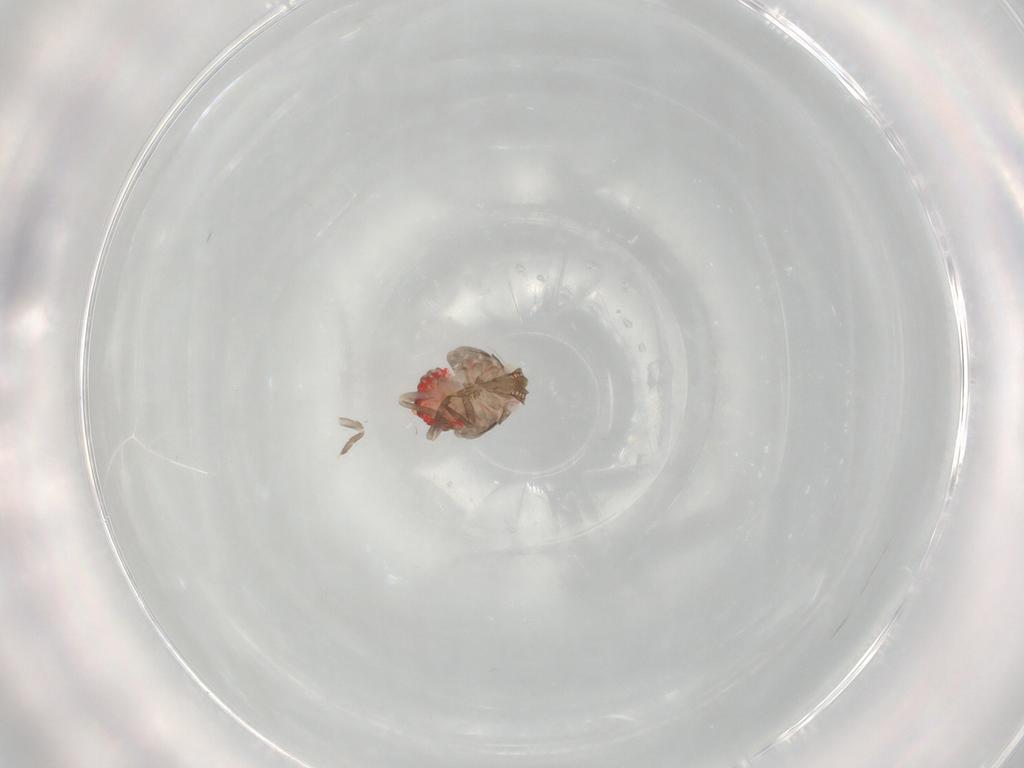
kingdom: Animalia
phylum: Arthropoda
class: Insecta
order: Hemiptera
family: Fulgoroidea_incertae_sedis
